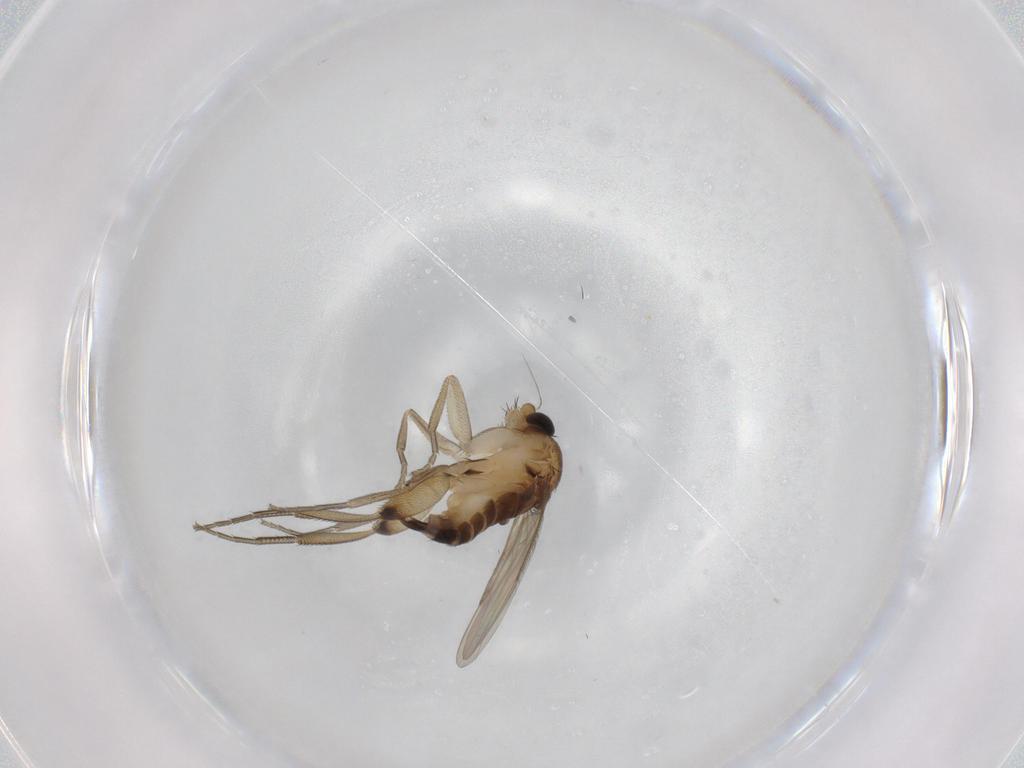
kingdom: Animalia
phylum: Arthropoda
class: Insecta
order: Diptera
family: Phoridae
